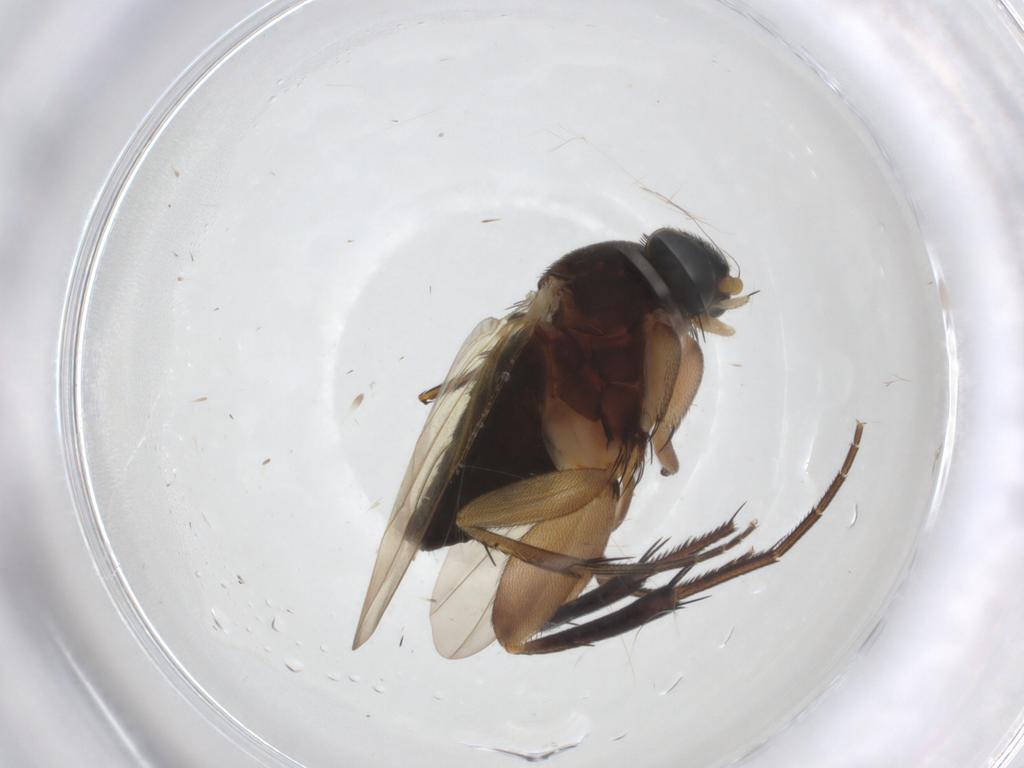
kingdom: Animalia
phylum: Arthropoda
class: Insecta
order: Diptera
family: Phoridae
